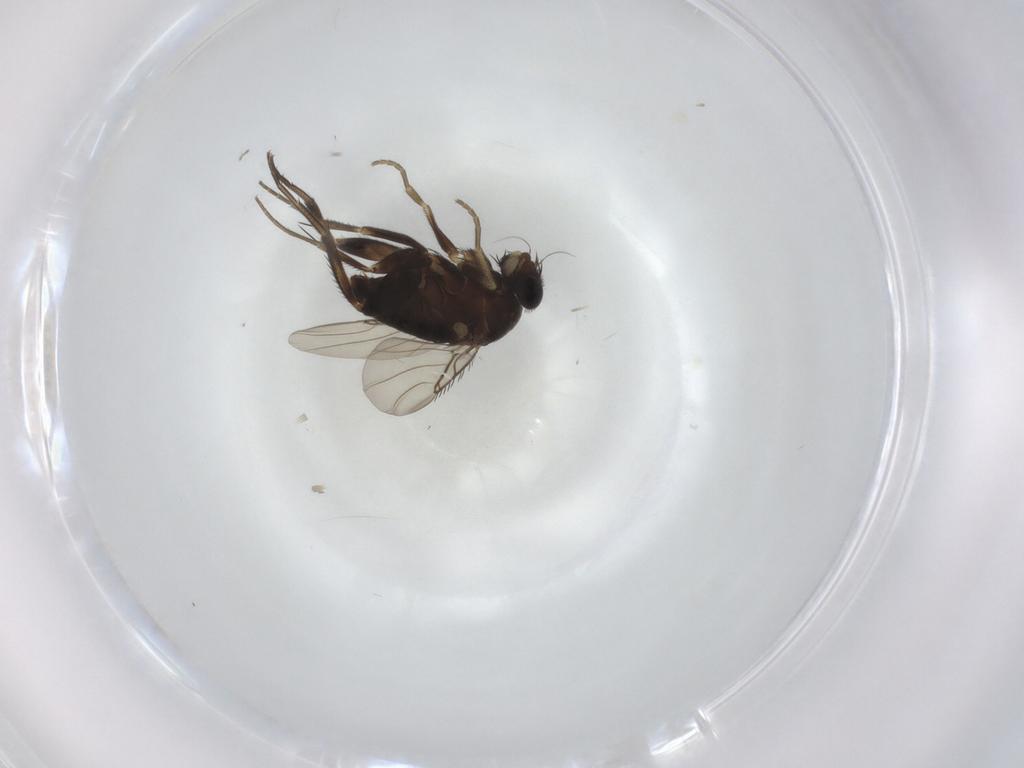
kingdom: Animalia
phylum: Arthropoda
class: Insecta
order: Diptera
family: Phoridae
